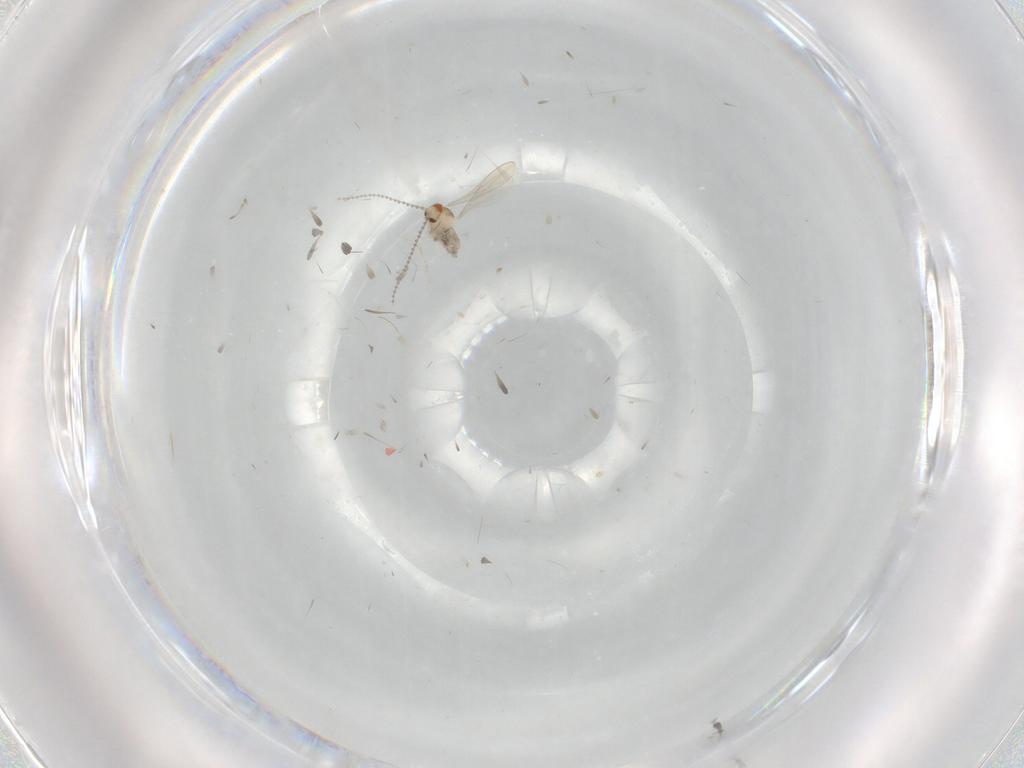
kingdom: Animalia
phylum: Arthropoda
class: Insecta
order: Diptera
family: Cecidomyiidae
